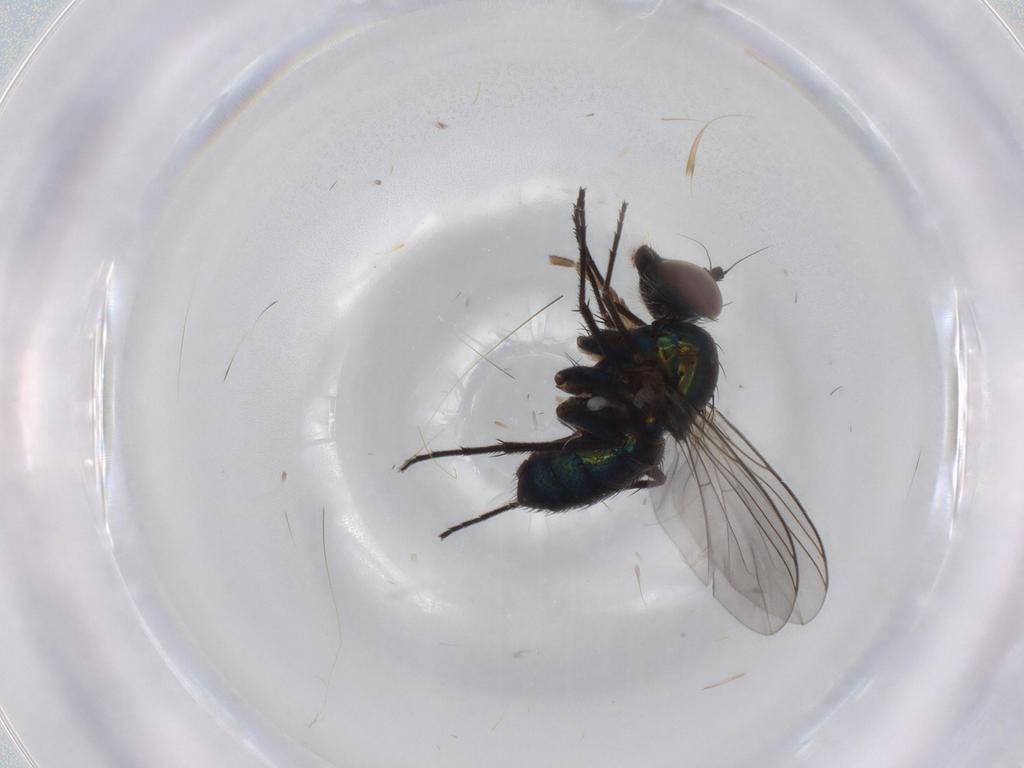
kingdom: Animalia
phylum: Arthropoda
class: Insecta
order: Diptera
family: Dolichopodidae
